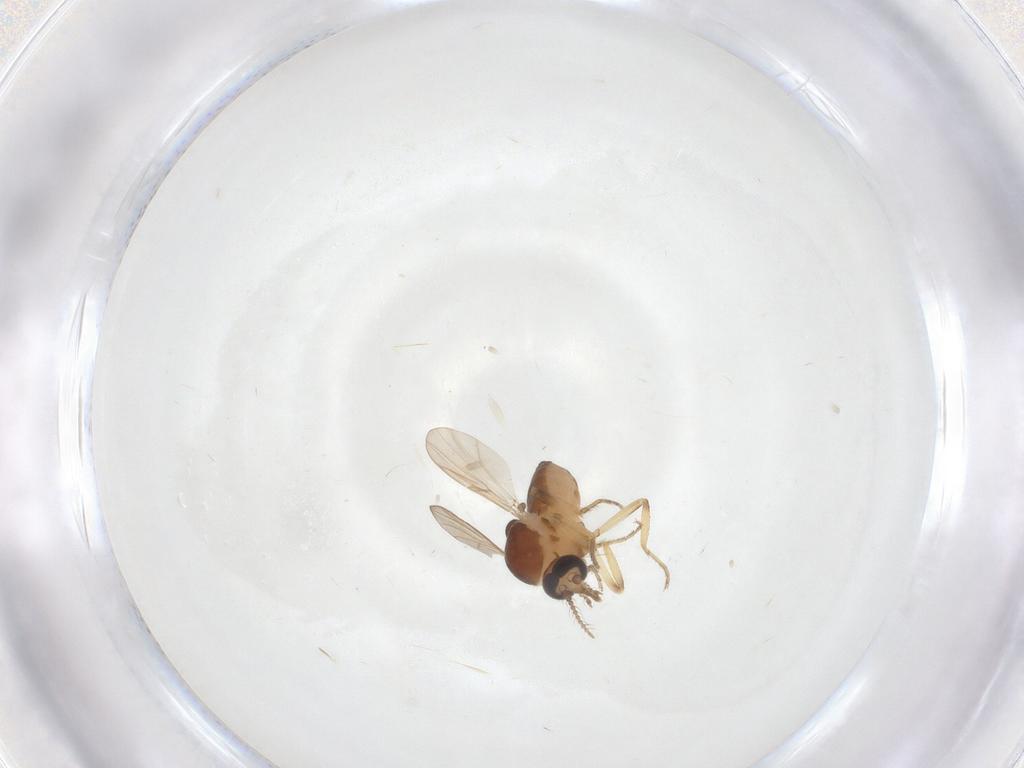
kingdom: Animalia
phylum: Arthropoda
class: Insecta
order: Diptera
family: Ceratopogonidae
